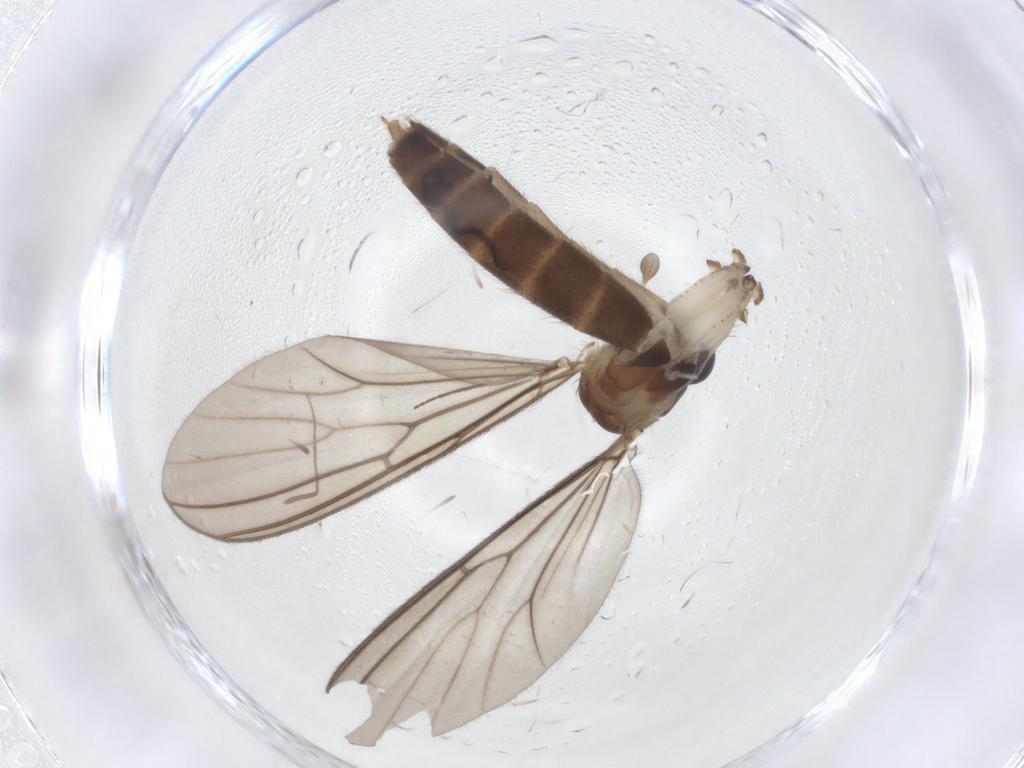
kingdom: Animalia
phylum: Arthropoda
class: Insecta
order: Diptera
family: Chironomidae
